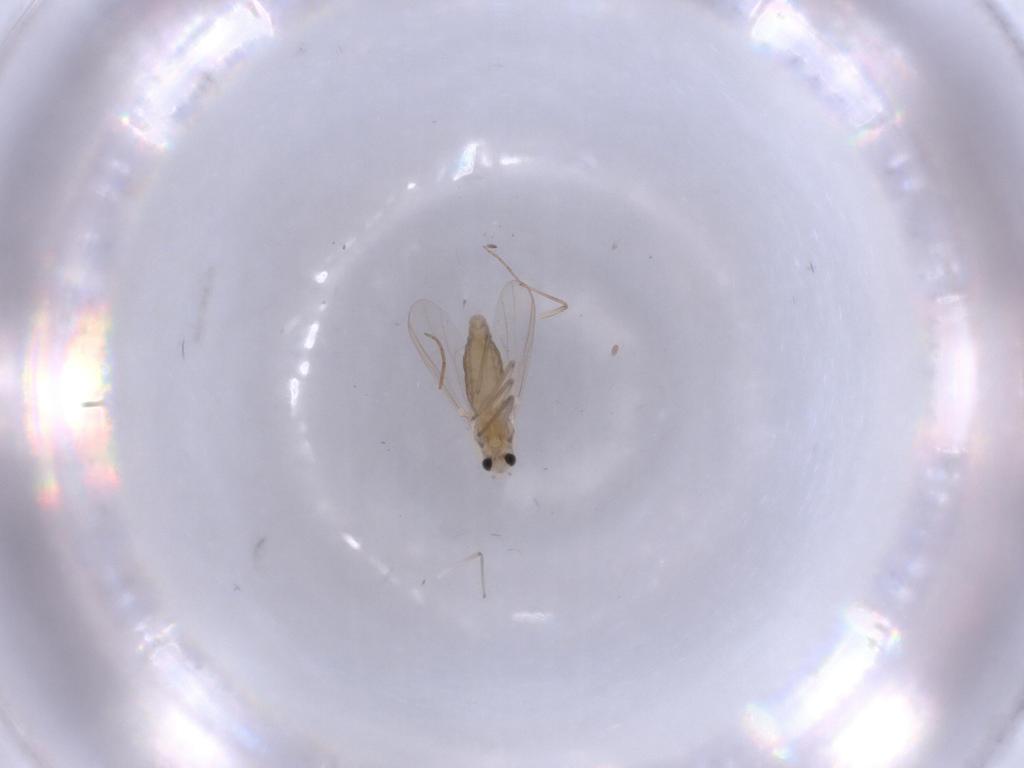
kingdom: Animalia
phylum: Arthropoda
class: Insecta
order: Diptera
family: Chironomidae
